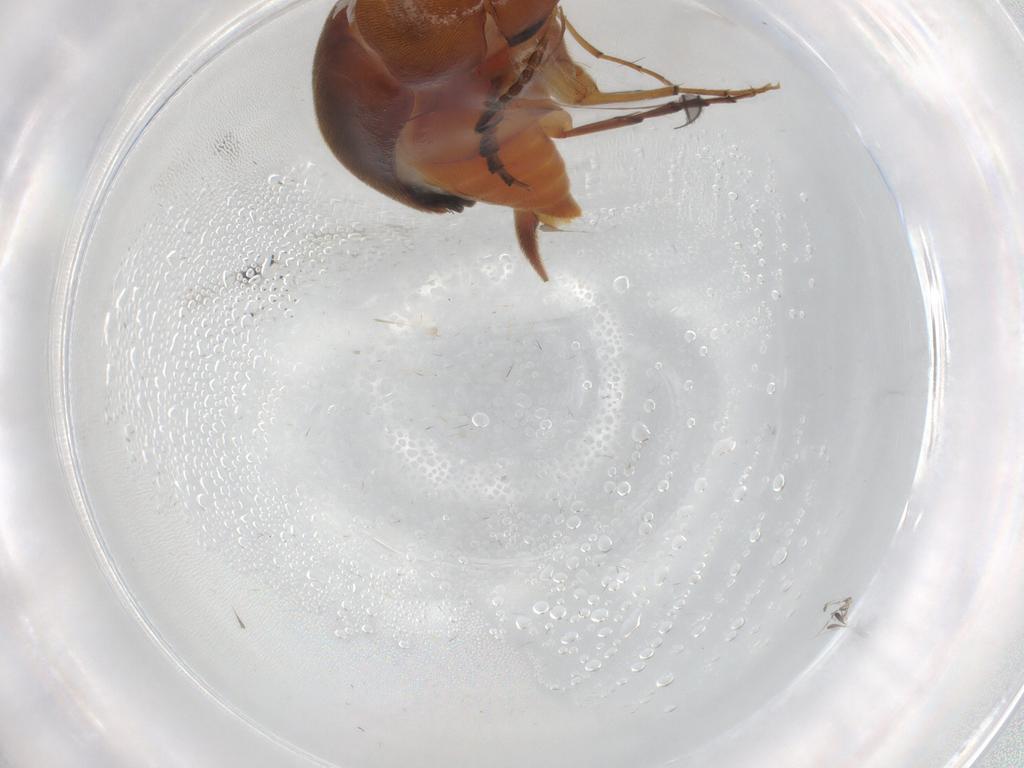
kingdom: Animalia
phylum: Arthropoda
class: Insecta
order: Coleoptera
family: Mordellidae
